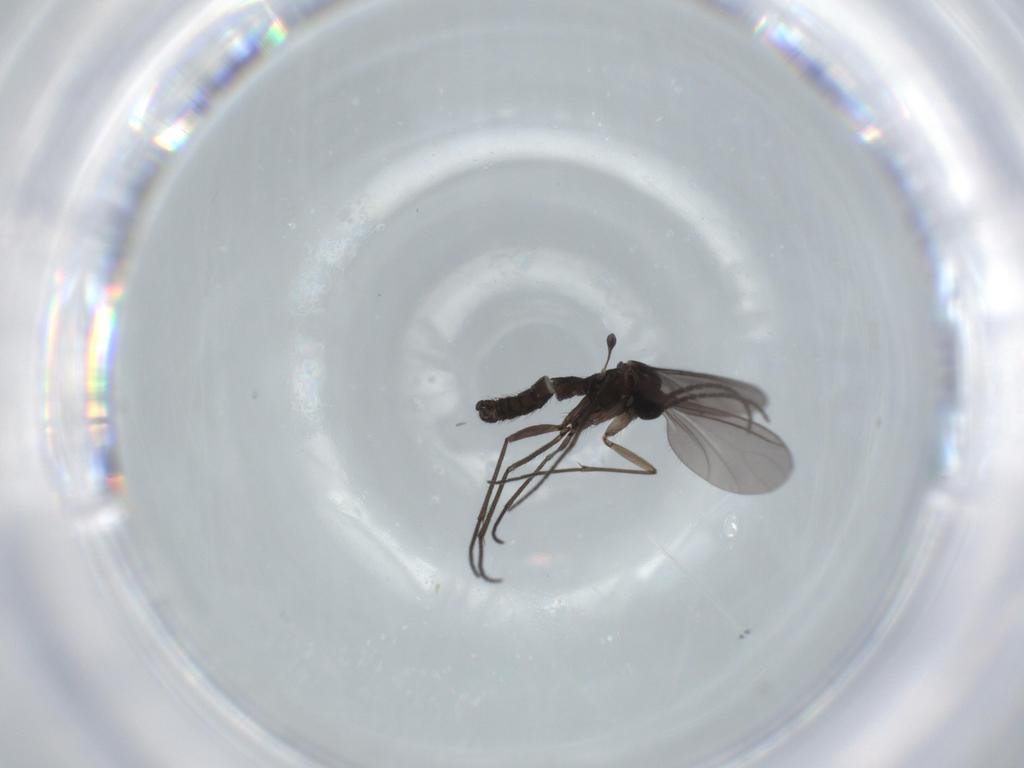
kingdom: Animalia
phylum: Arthropoda
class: Insecta
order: Diptera
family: Sciaridae
